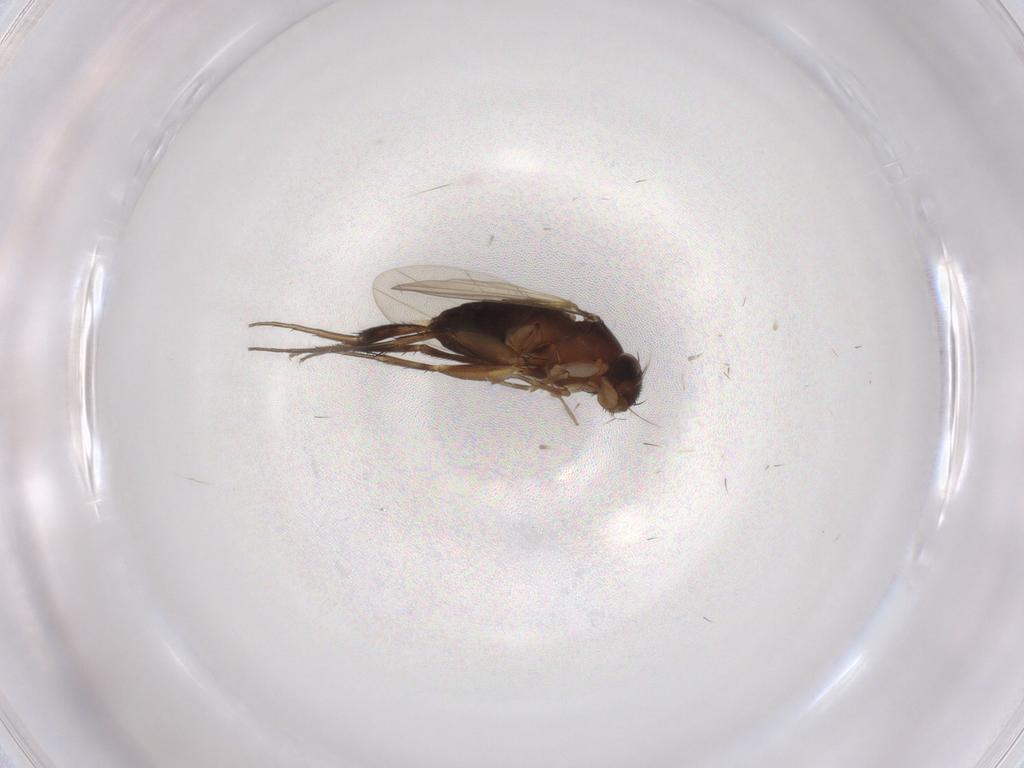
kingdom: Animalia
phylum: Arthropoda
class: Insecta
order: Diptera
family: Phoridae
